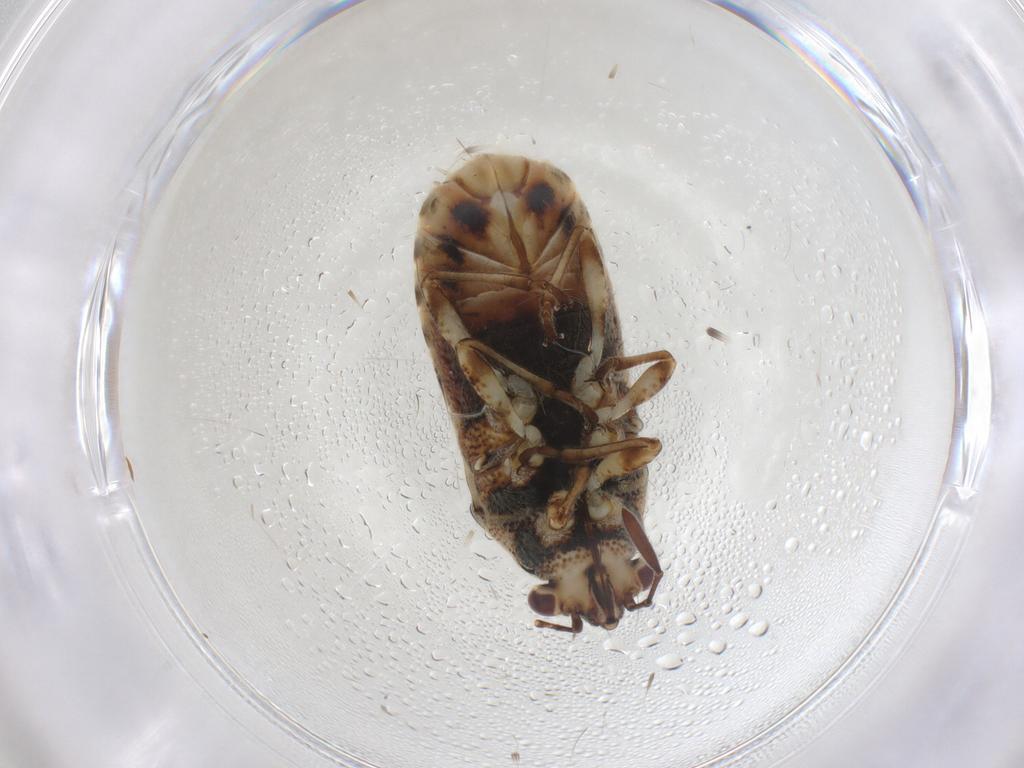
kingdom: Animalia
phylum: Arthropoda
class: Insecta
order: Hemiptera
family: Lygaeidae
